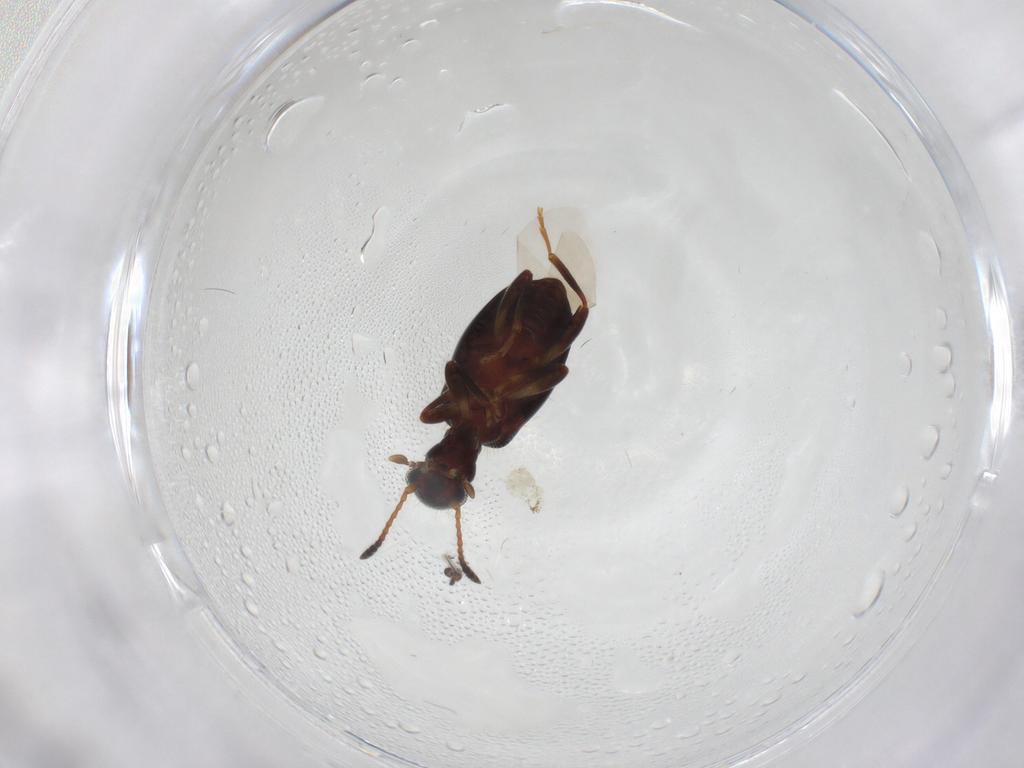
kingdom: Animalia
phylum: Arthropoda
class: Insecta
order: Coleoptera
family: Anthicidae
